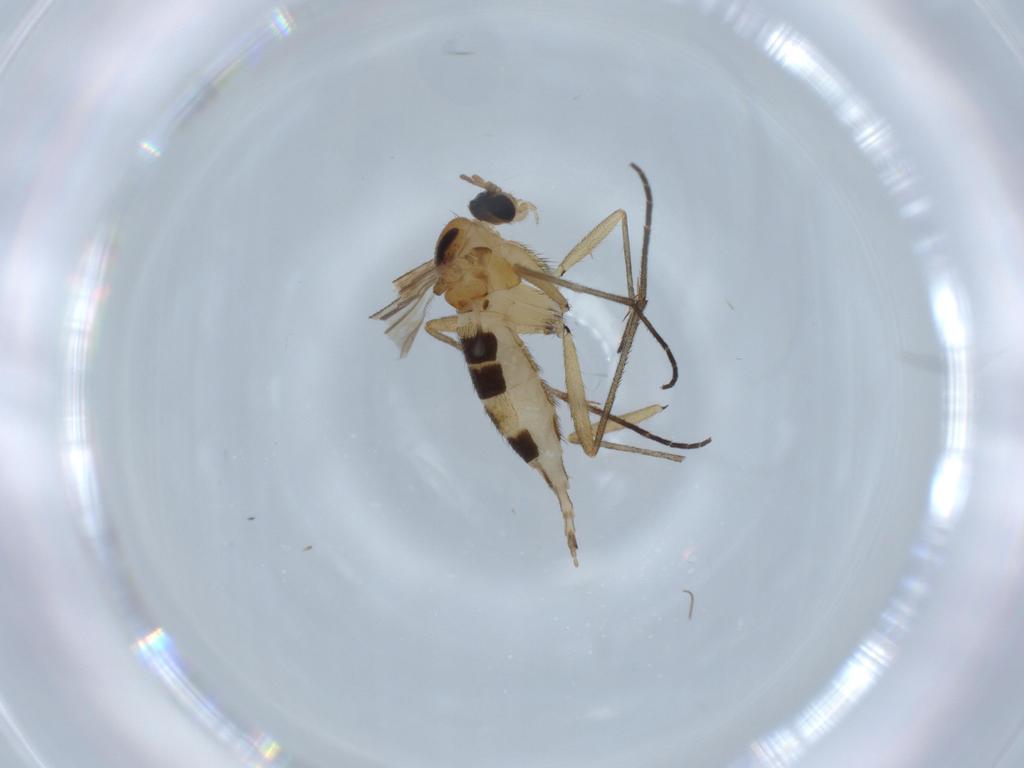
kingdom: Animalia
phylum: Arthropoda
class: Insecta
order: Diptera
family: Chironomidae
